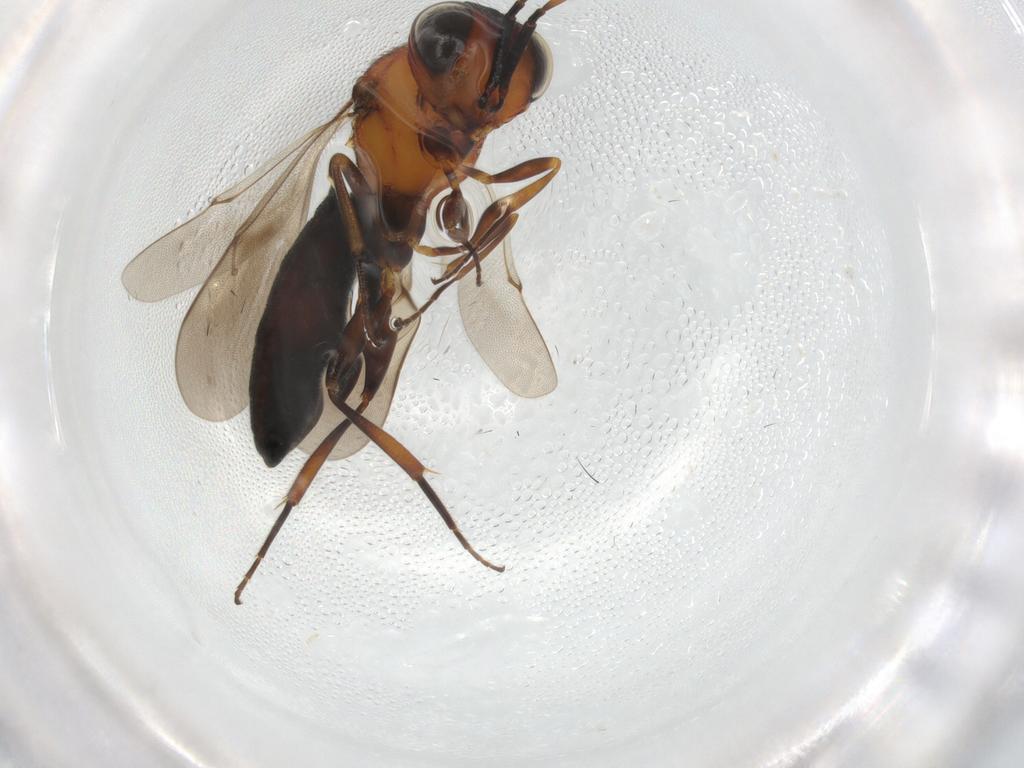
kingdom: Animalia
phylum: Arthropoda
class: Insecta
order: Hymenoptera
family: Scelionidae
